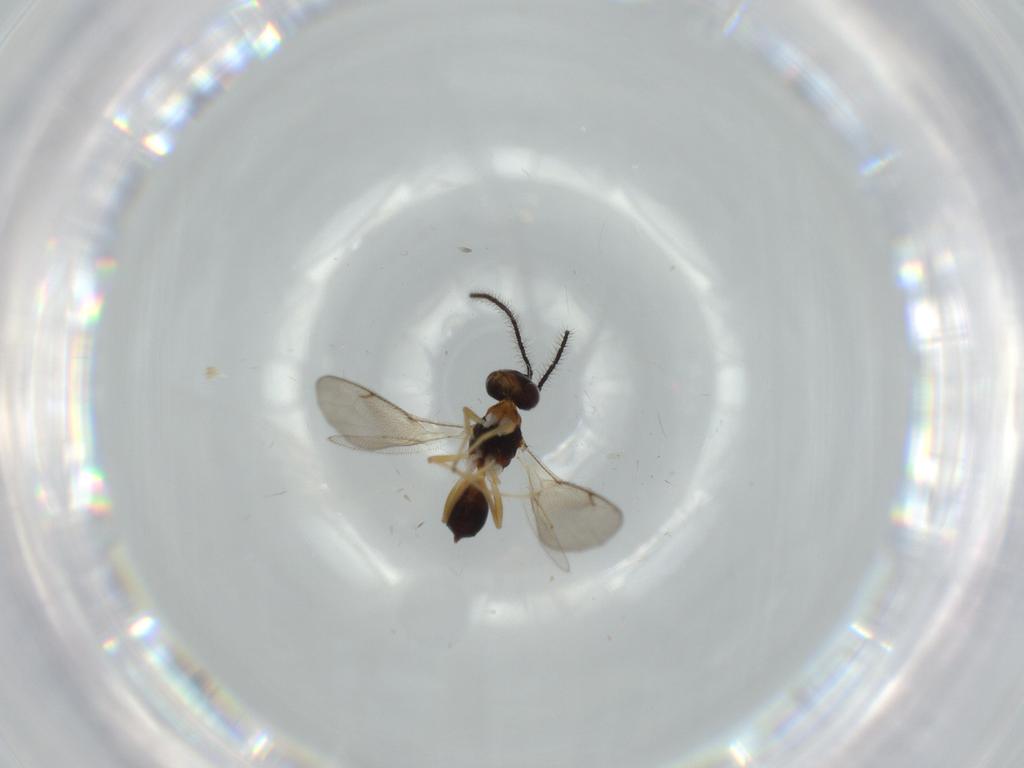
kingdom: Animalia
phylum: Arthropoda
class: Insecta
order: Hymenoptera
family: Diparidae
